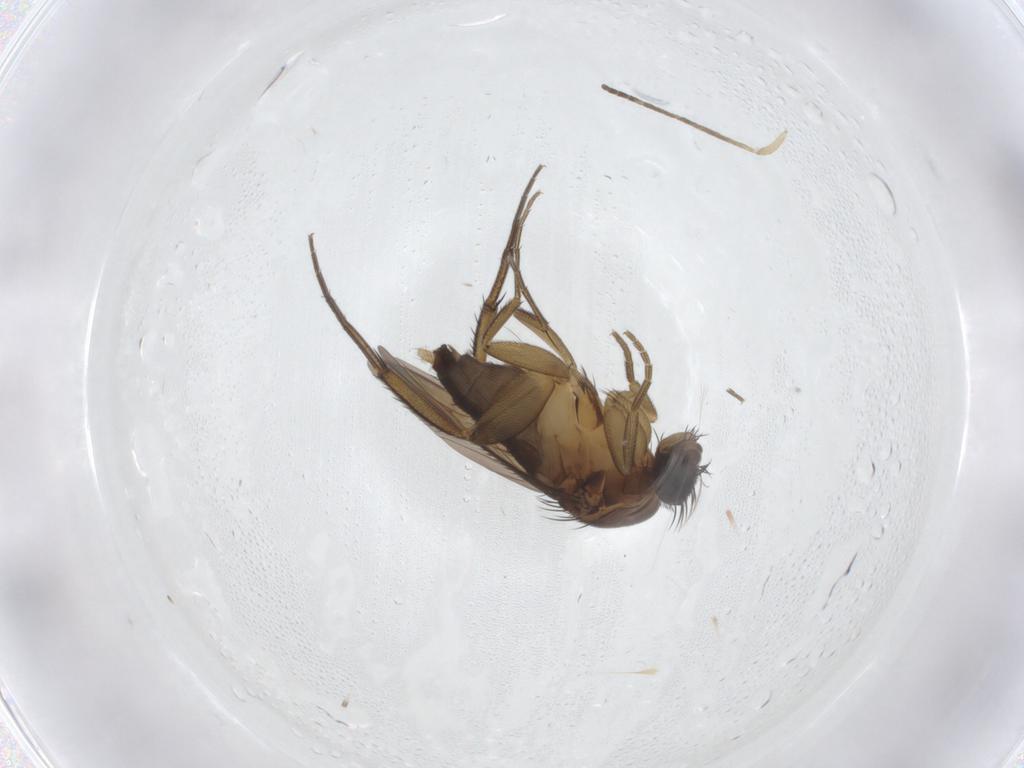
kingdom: Animalia
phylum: Arthropoda
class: Insecta
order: Diptera
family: Phoridae
